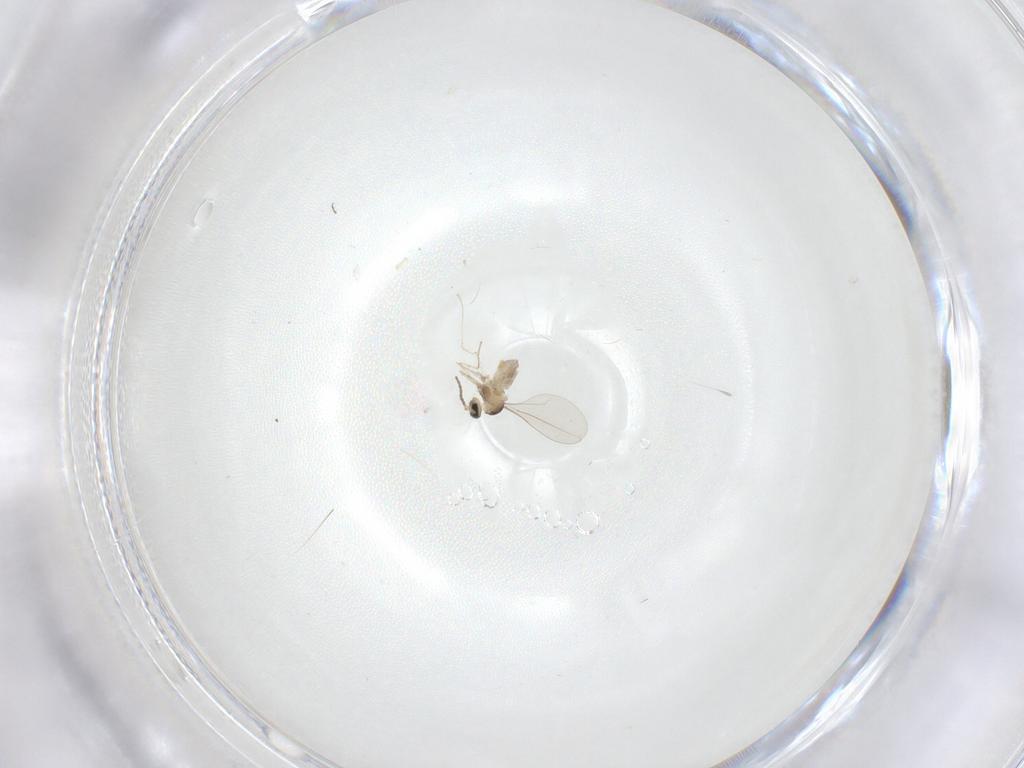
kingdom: Animalia
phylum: Arthropoda
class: Insecta
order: Diptera
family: Cecidomyiidae
